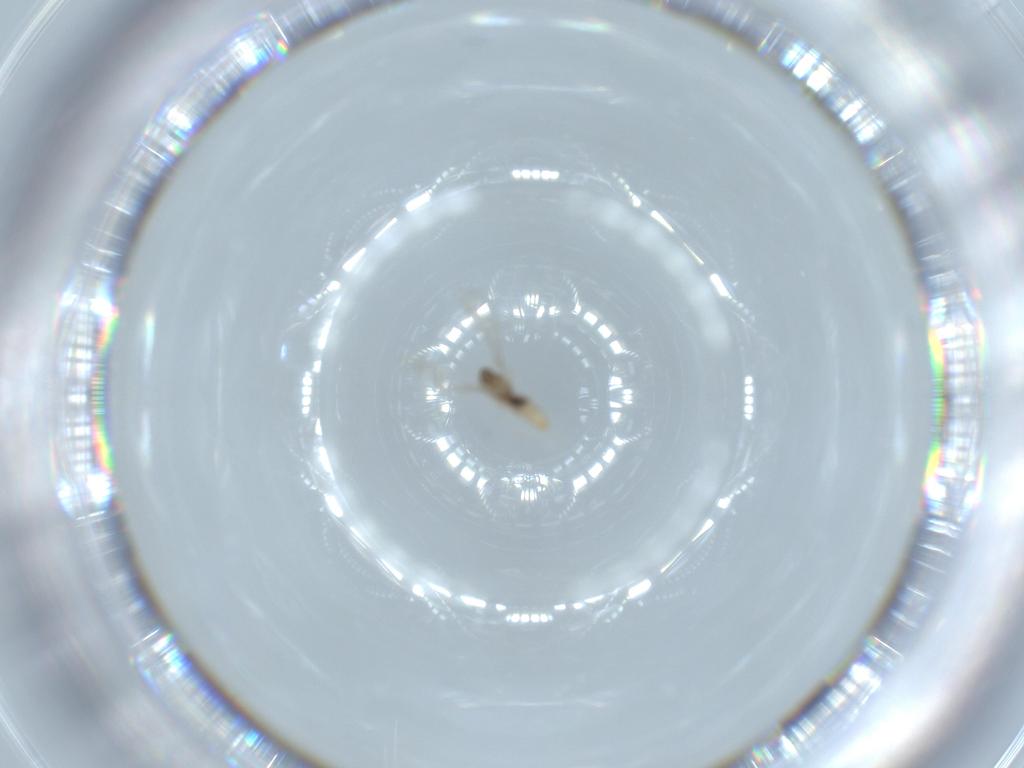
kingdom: Animalia
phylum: Arthropoda
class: Insecta
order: Diptera
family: Cecidomyiidae
